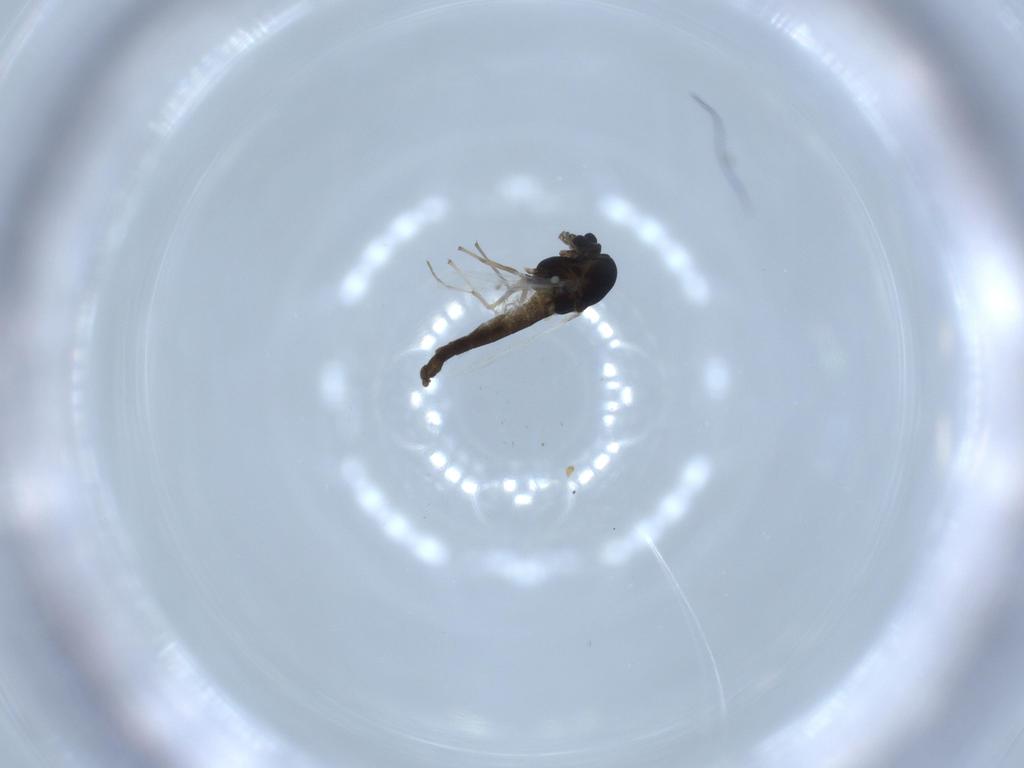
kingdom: Animalia
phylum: Arthropoda
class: Insecta
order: Diptera
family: Chironomidae
